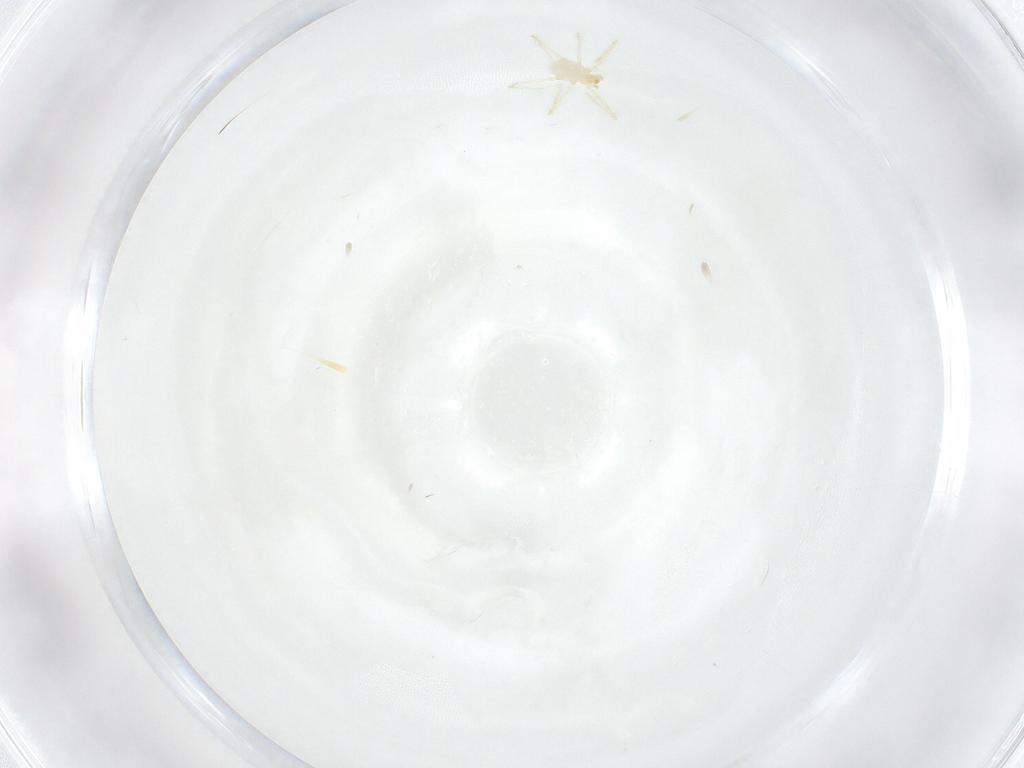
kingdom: Animalia
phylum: Arthropoda
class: Arachnida
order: Trombidiformes
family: Erythraeidae
